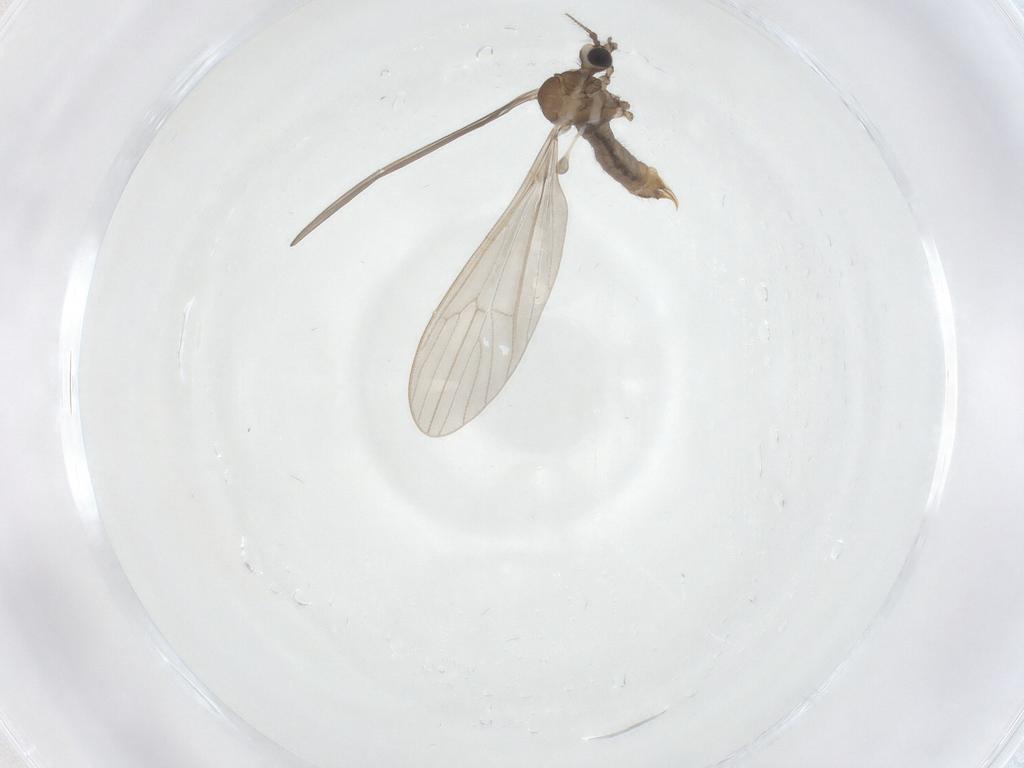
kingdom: Animalia
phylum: Arthropoda
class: Insecta
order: Diptera
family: Limoniidae
